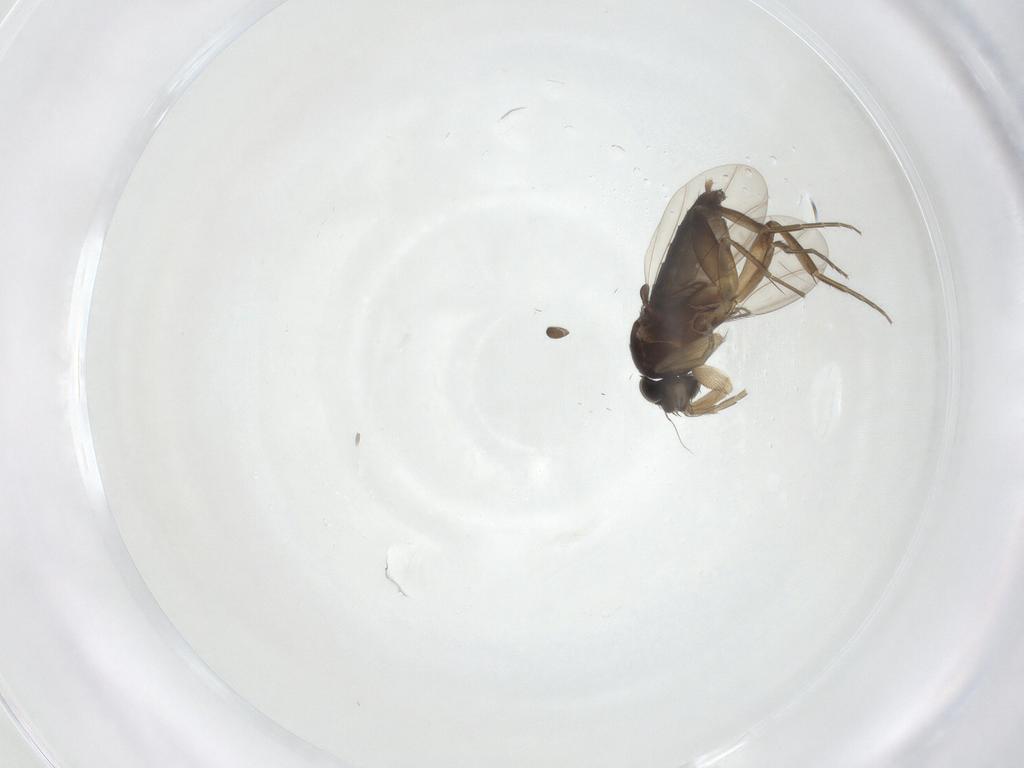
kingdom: Animalia
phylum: Arthropoda
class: Insecta
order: Diptera
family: Phoridae
